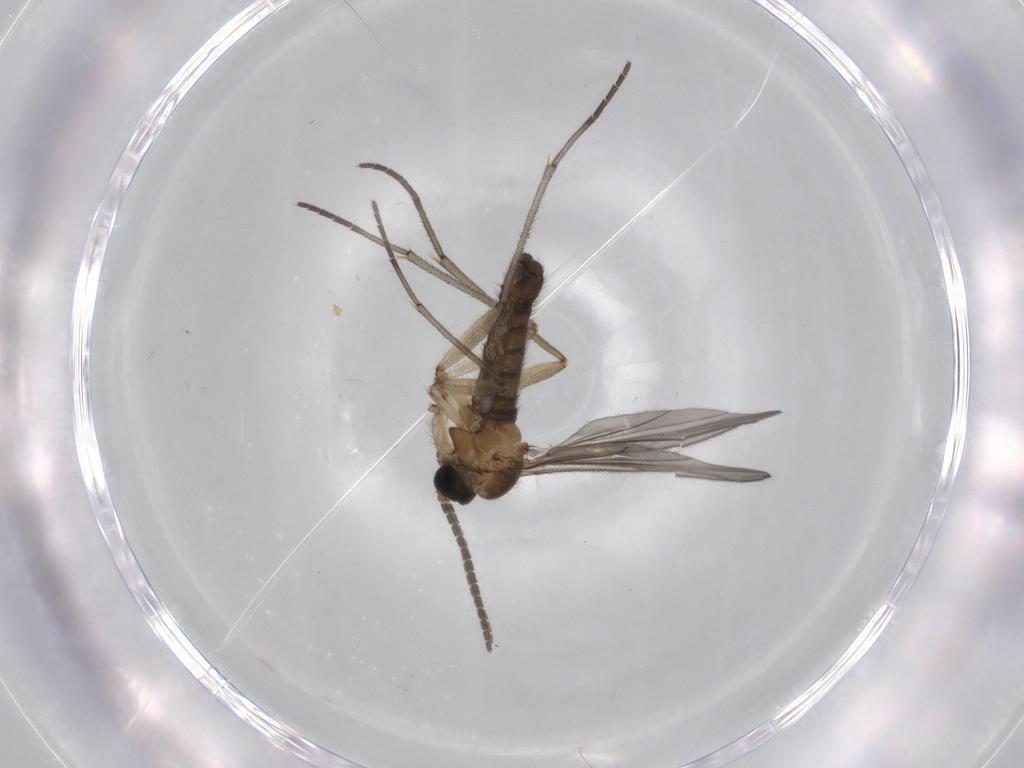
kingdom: Animalia
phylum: Arthropoda
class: Insecta
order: Diptera
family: Sciaridae
